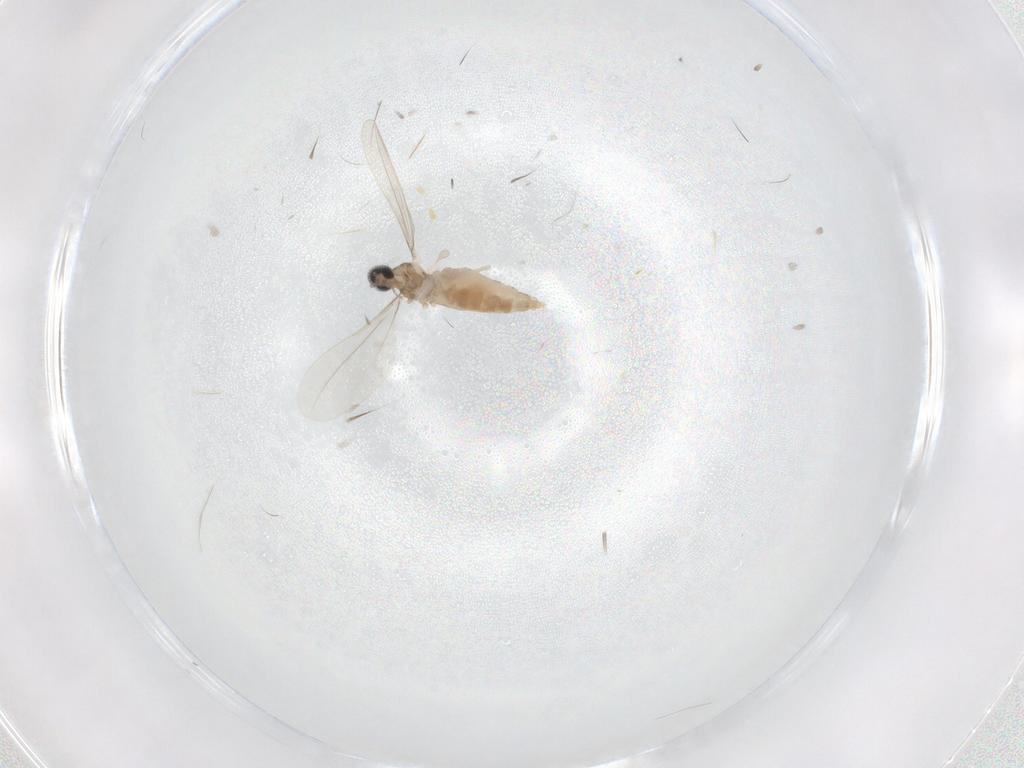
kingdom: Animalia
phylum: Arthropoda
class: Insecta
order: Diptera
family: Cecidomyiidae
